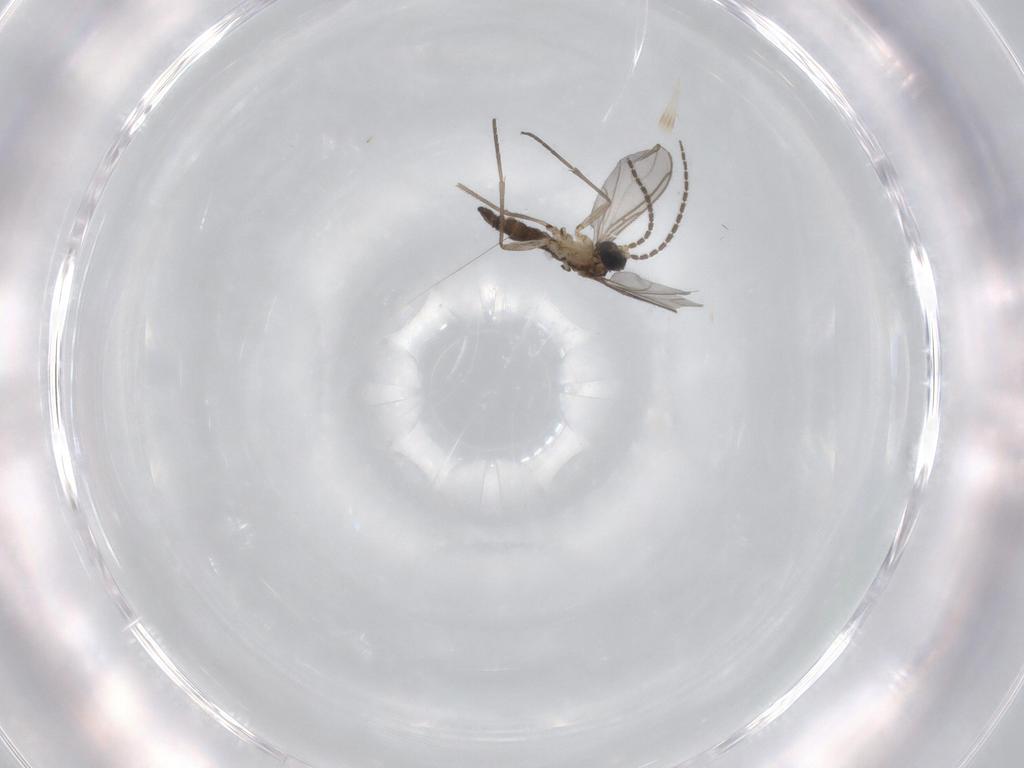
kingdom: Animalia
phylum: Arthropoda
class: Insecta
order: Diptera
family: Sciaridae
